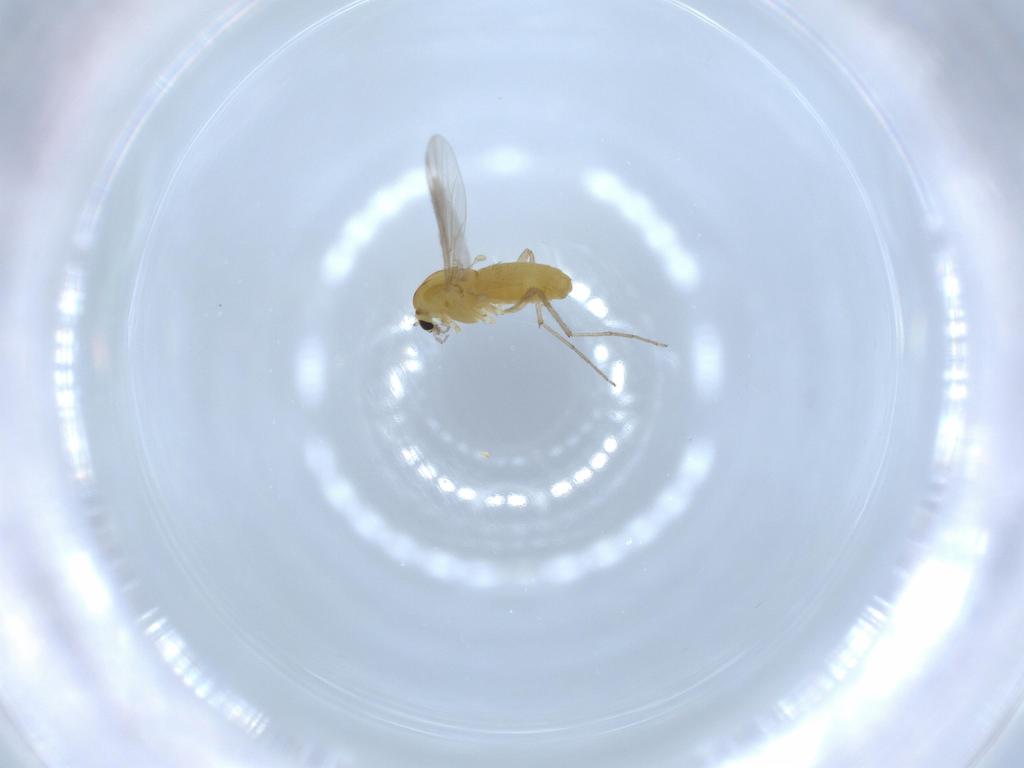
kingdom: Animalia
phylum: Arthropoda
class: Insecta
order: Diptera
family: Chironomidae
